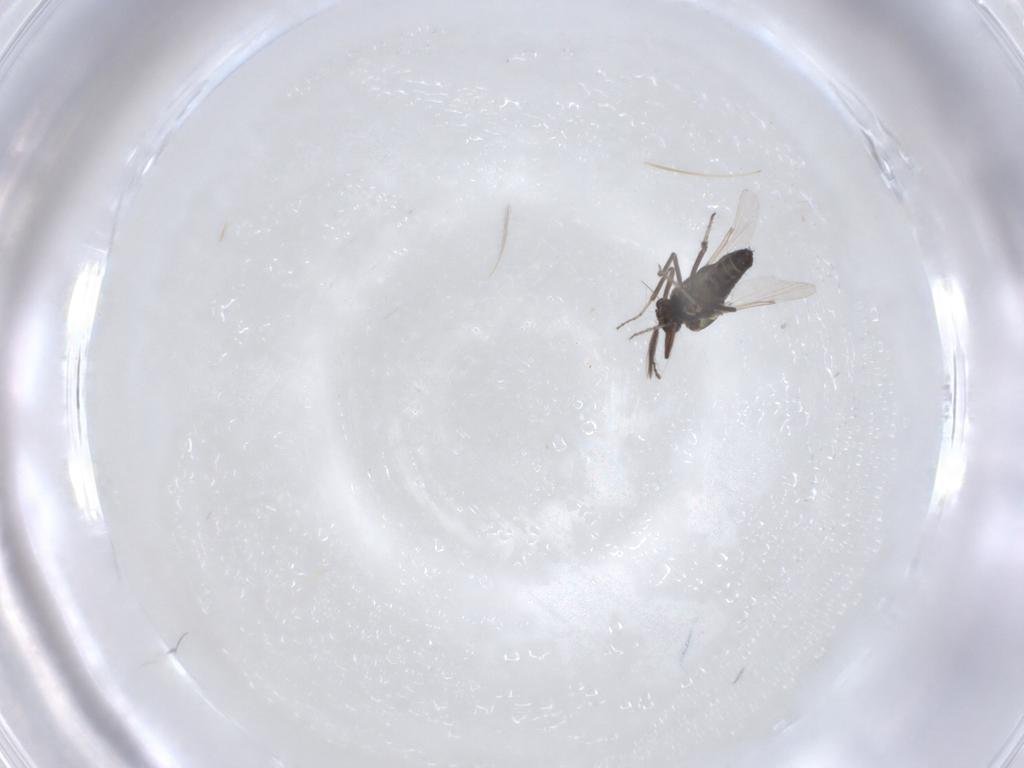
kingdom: Animalia
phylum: Arthropoda
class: Insecta
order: Diptera
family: Ceratopogonidae
